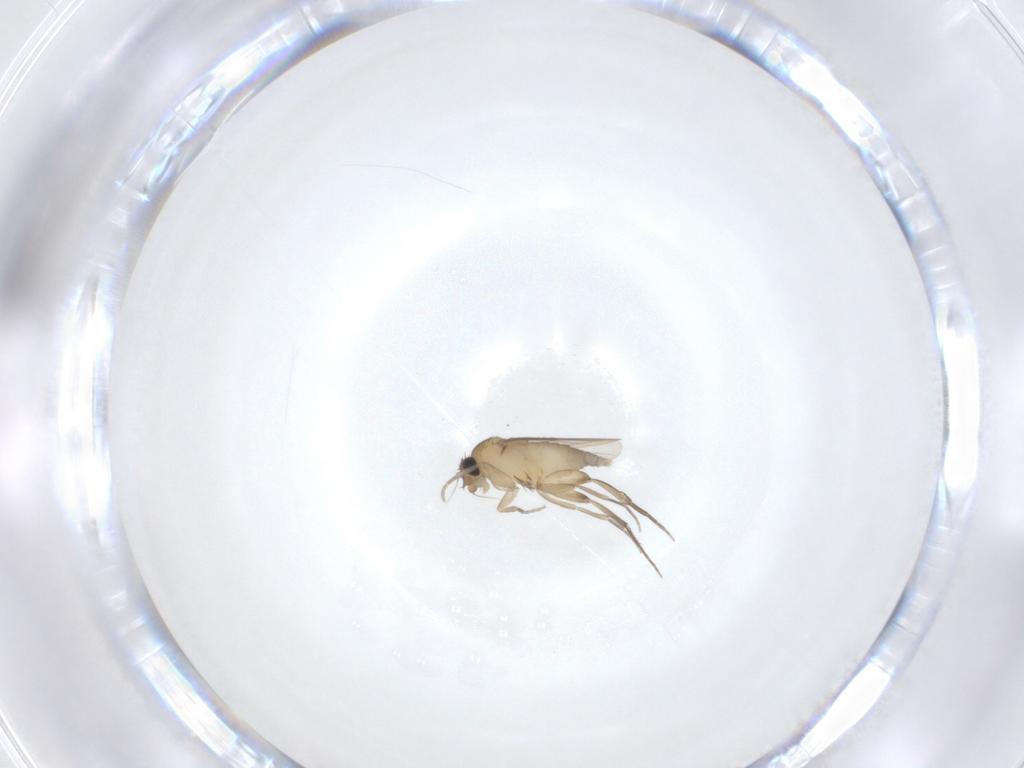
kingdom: Animalia
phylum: Arthropoda
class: Insecta
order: Diptera
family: Phoridae
